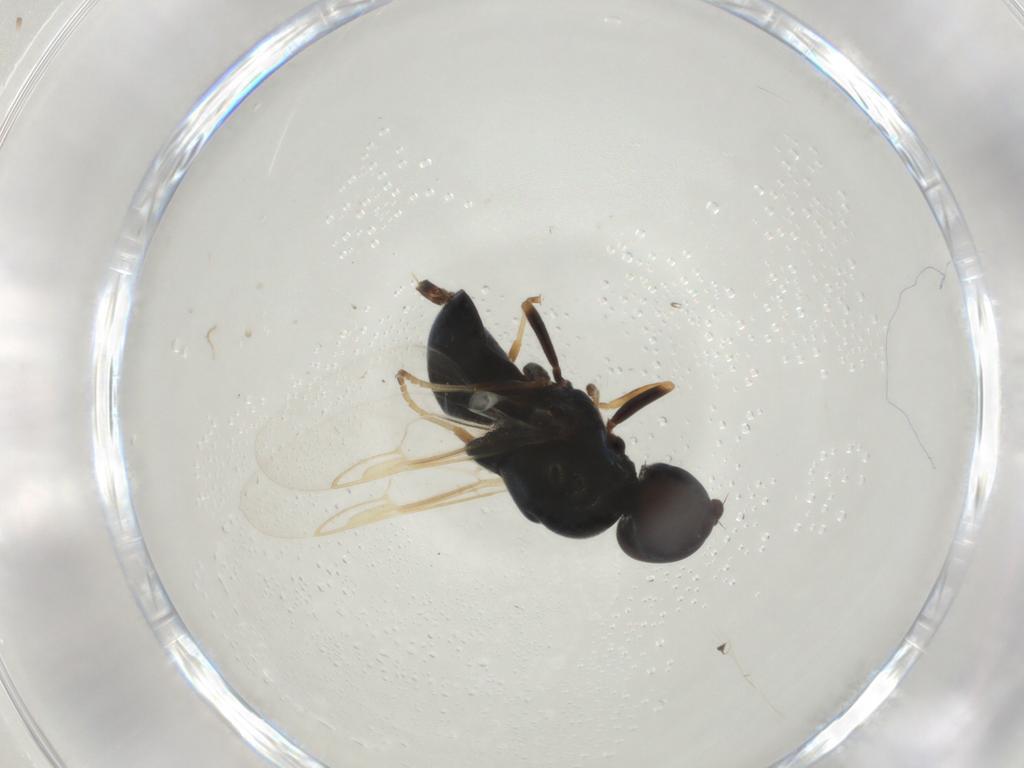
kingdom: Animalia
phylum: Arthropoda
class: Insecta
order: Diptera
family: Stratiomyidae
